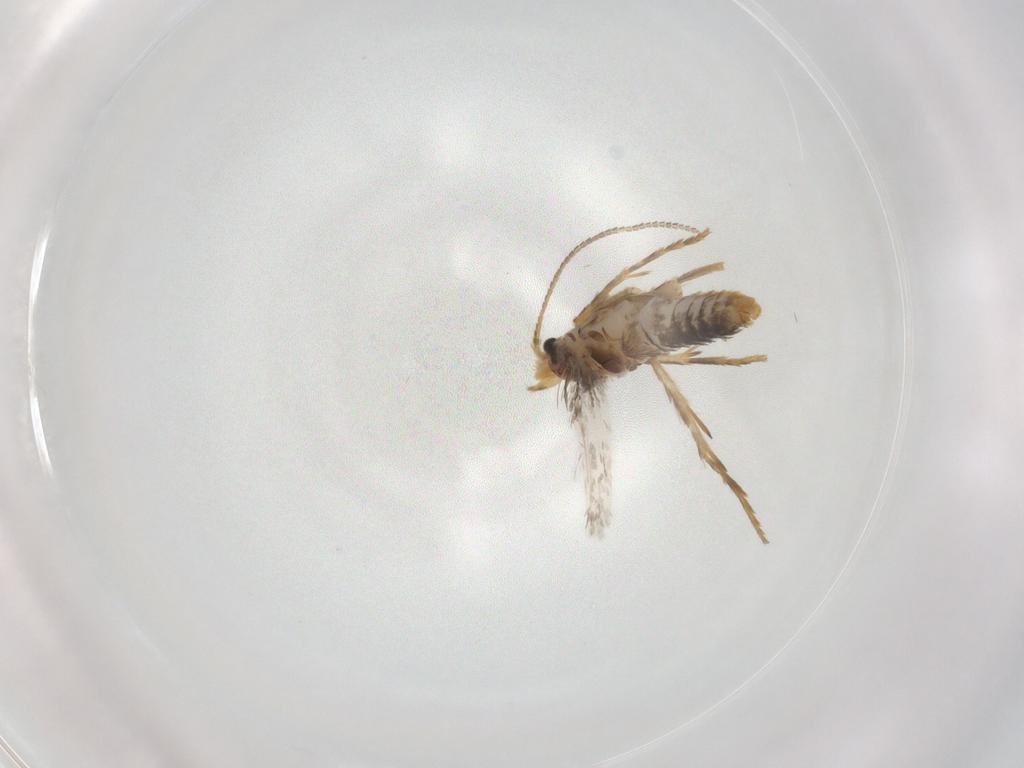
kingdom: Animalia
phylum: Arthropoda
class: Insecta
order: Lepidoptera
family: Nepticulidae
